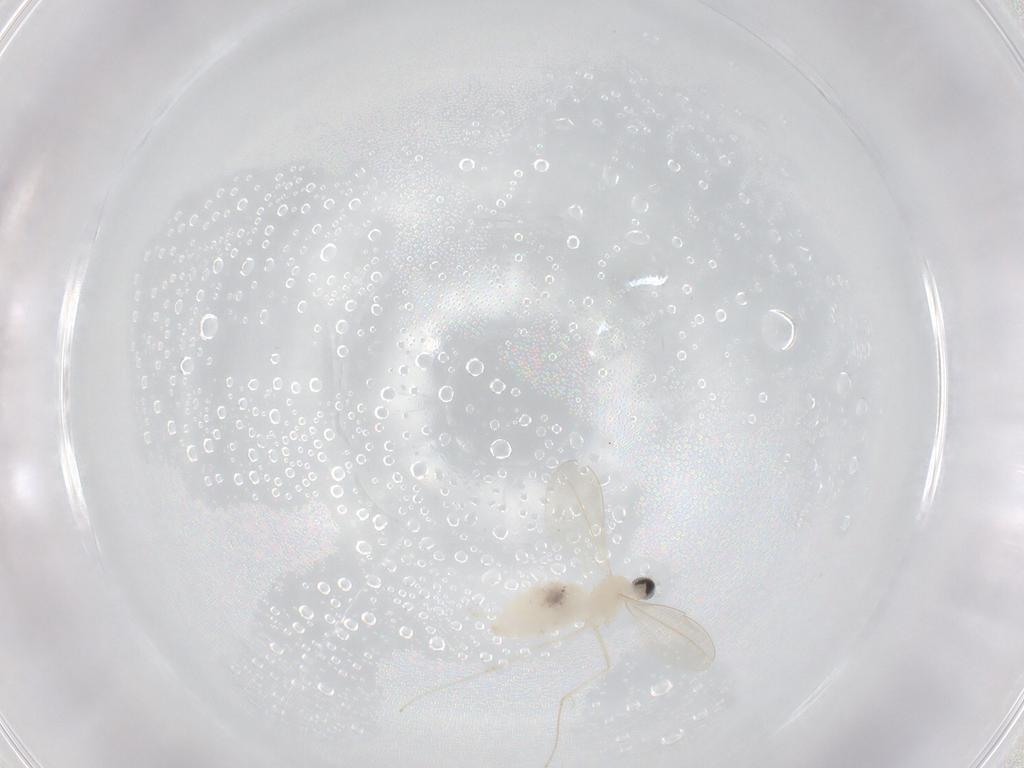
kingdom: Animalia
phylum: Arthropoda
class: Insecta
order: Diptera
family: Cecidomyiidae
